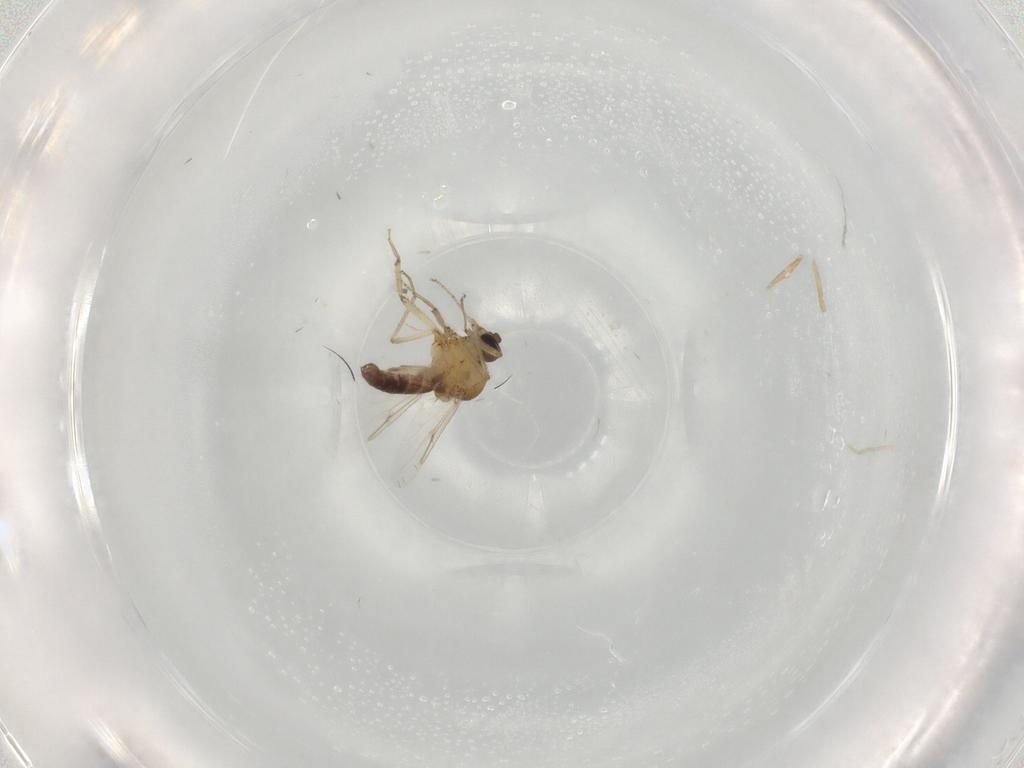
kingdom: Animalia
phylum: Arthropoda
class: Insecta
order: Diptera
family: Ceratopogonidae
